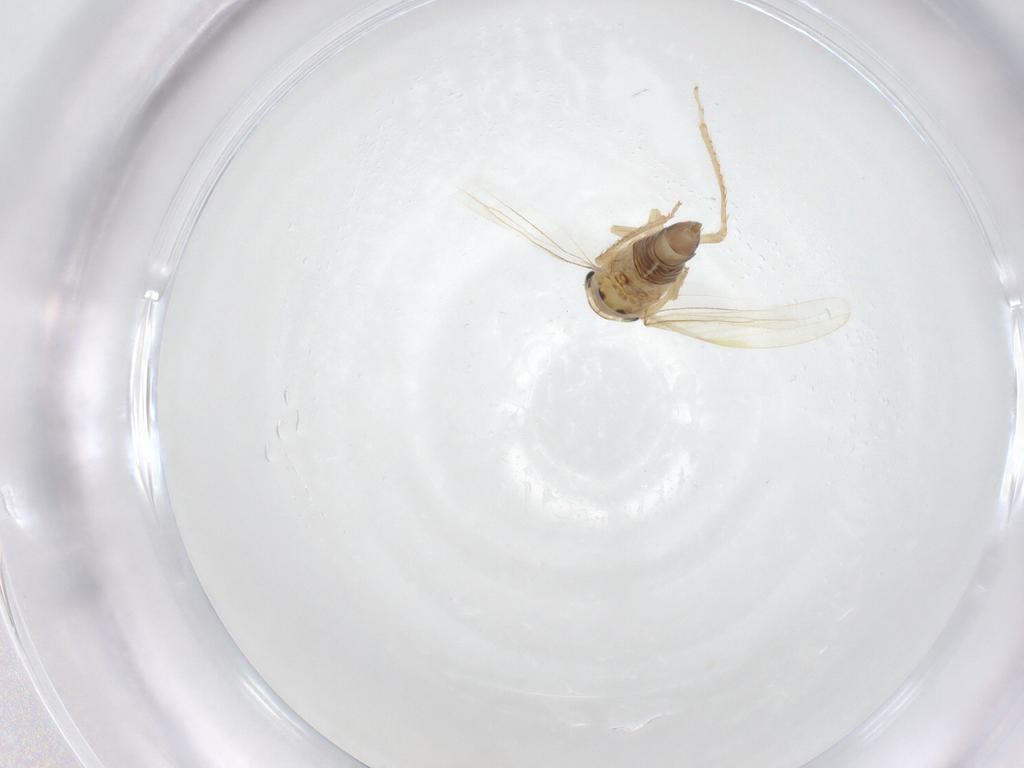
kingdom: Animalia
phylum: Arthropoda
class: Insecta
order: Hemiptera
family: Cicadellidae
